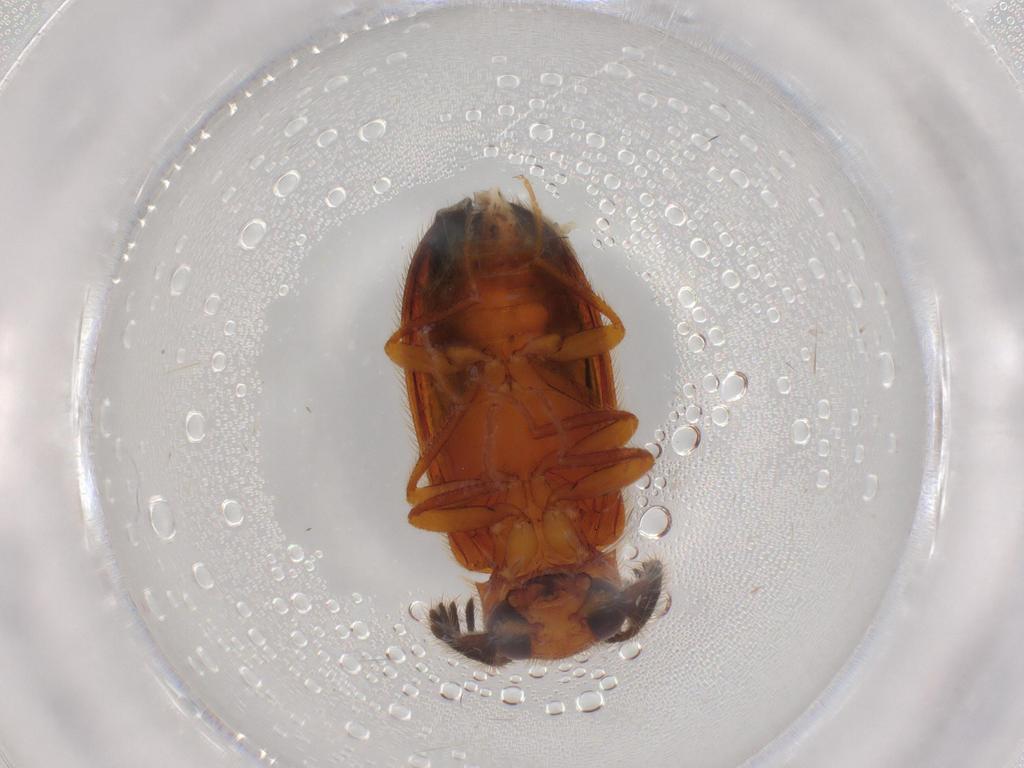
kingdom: Animalia
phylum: Arthropoda
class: Insecta
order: Coleoptera
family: Elateridae
